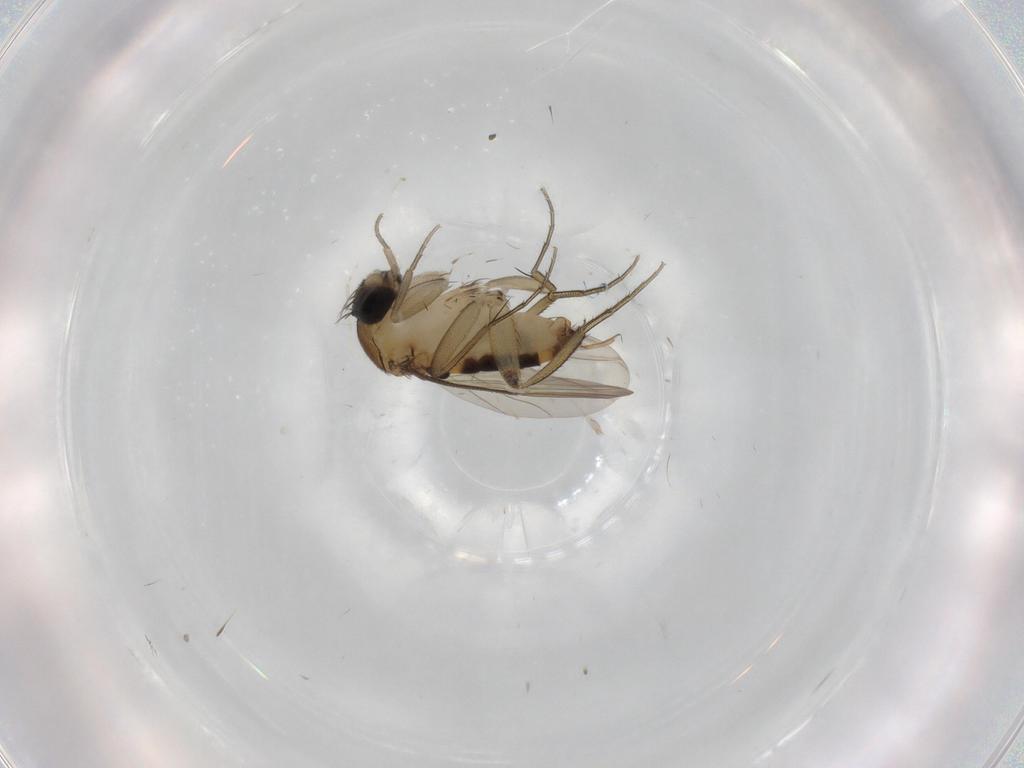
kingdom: Animalia
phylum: Arthropoda
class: Insecta
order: Diptera
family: Phoridae
